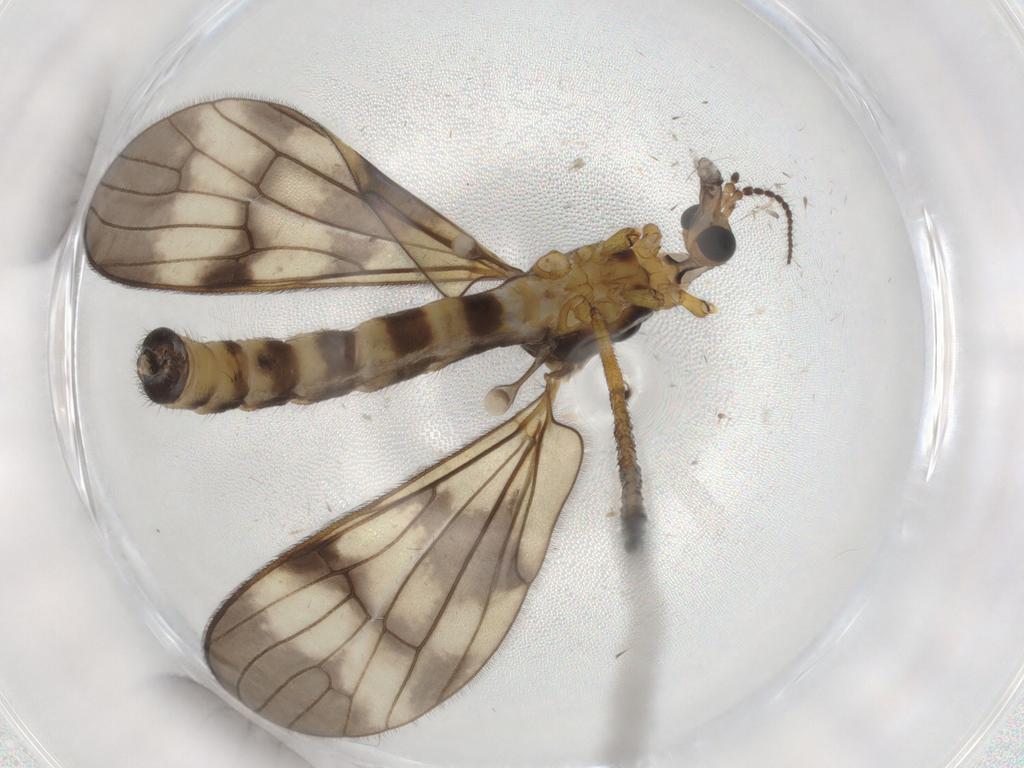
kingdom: Animalia
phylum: Arthropoda
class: Insecta
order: Diptera
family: Limoniidae
